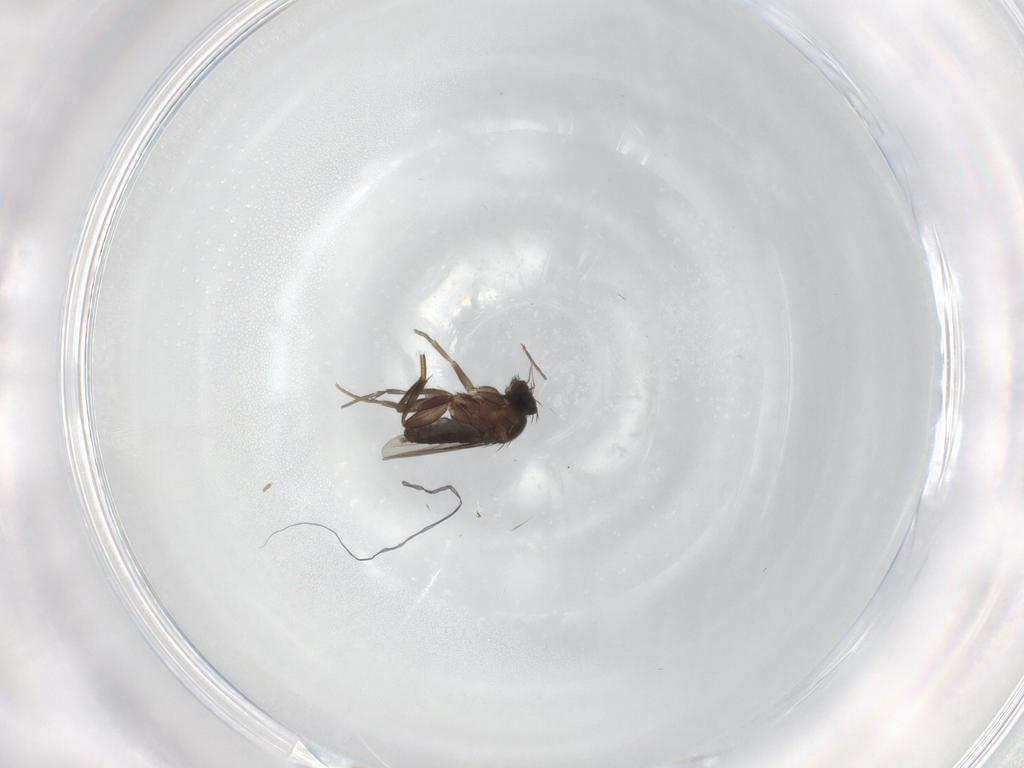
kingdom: Animalia
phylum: Arthropoda
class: Insecta
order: Diptera
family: Phoridae
